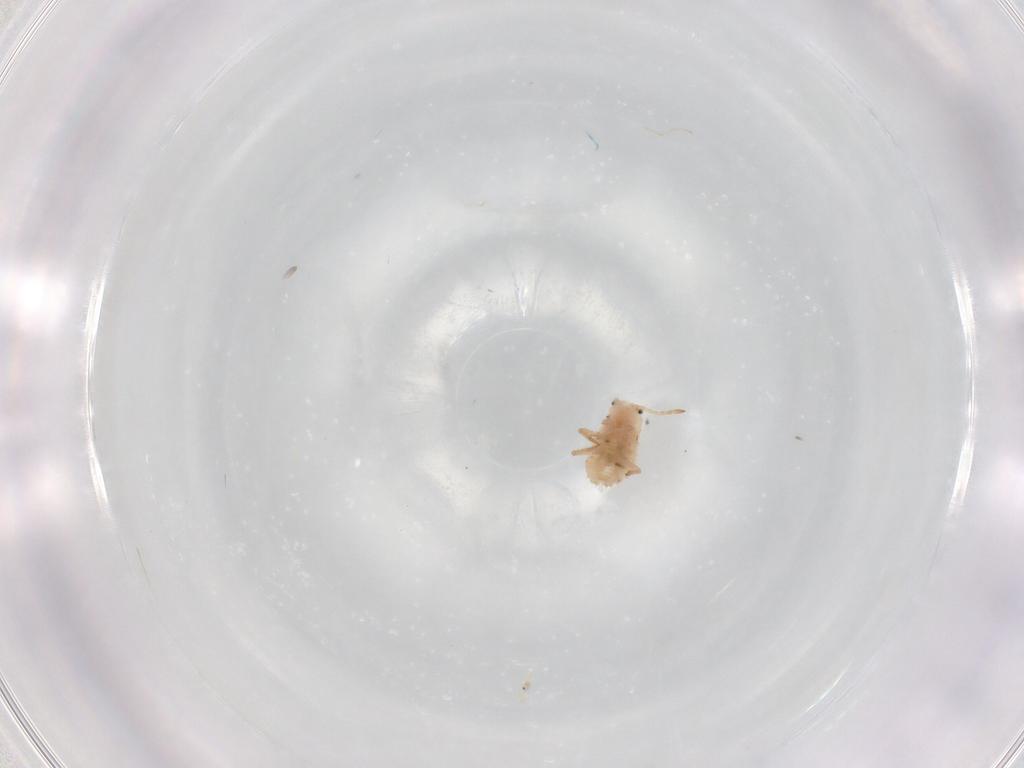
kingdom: Animalia
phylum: Arthropoda
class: Insecta
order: Hemiptera
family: Coccoidea_incertae_sedis
